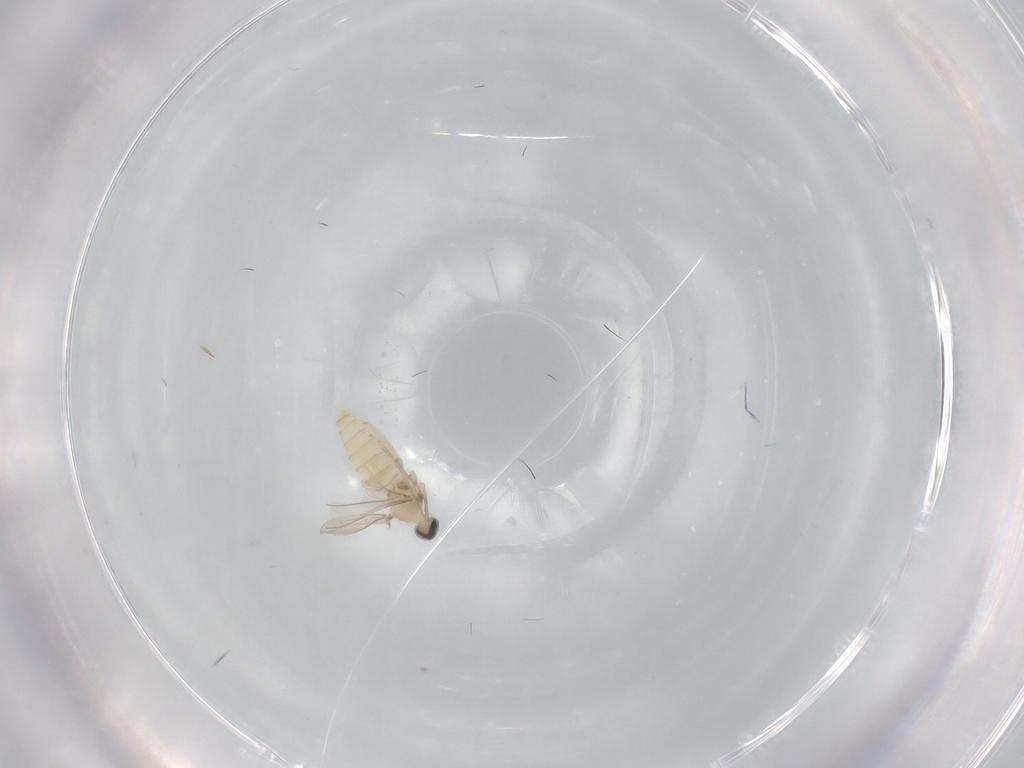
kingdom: Animalia
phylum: Arthropoda
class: Insecta
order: Diptera
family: Cecidomyiidae
